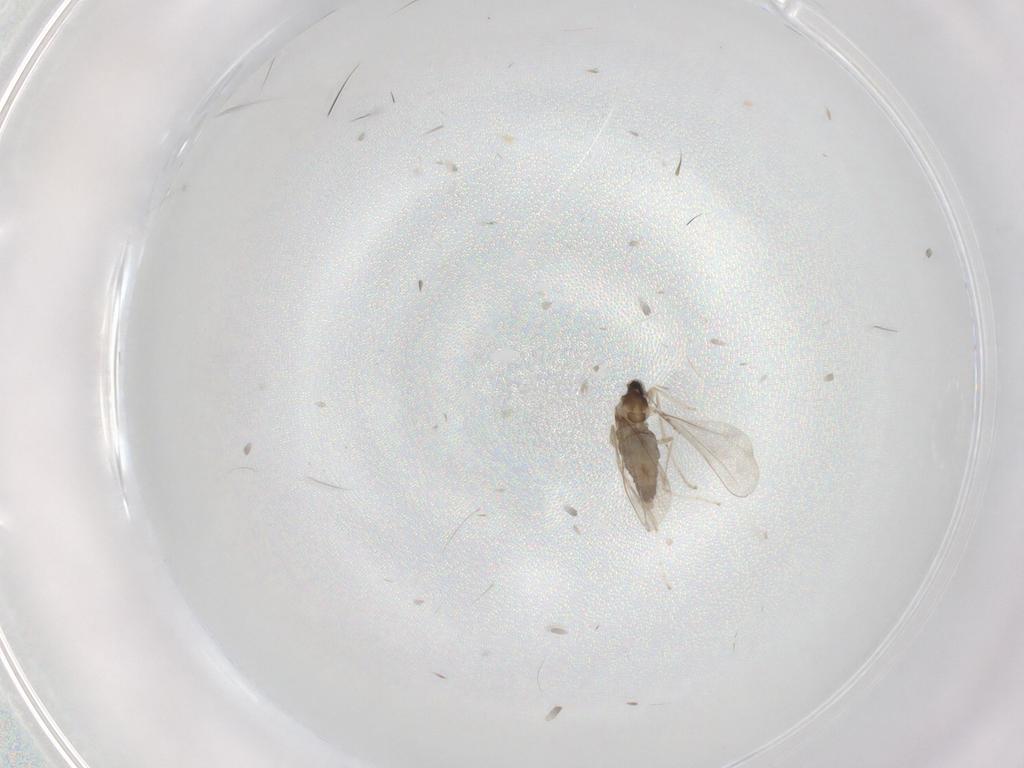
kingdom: Animalia
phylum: Arthropoda
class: Insecta
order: Diptera
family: Cecidomyiidae
